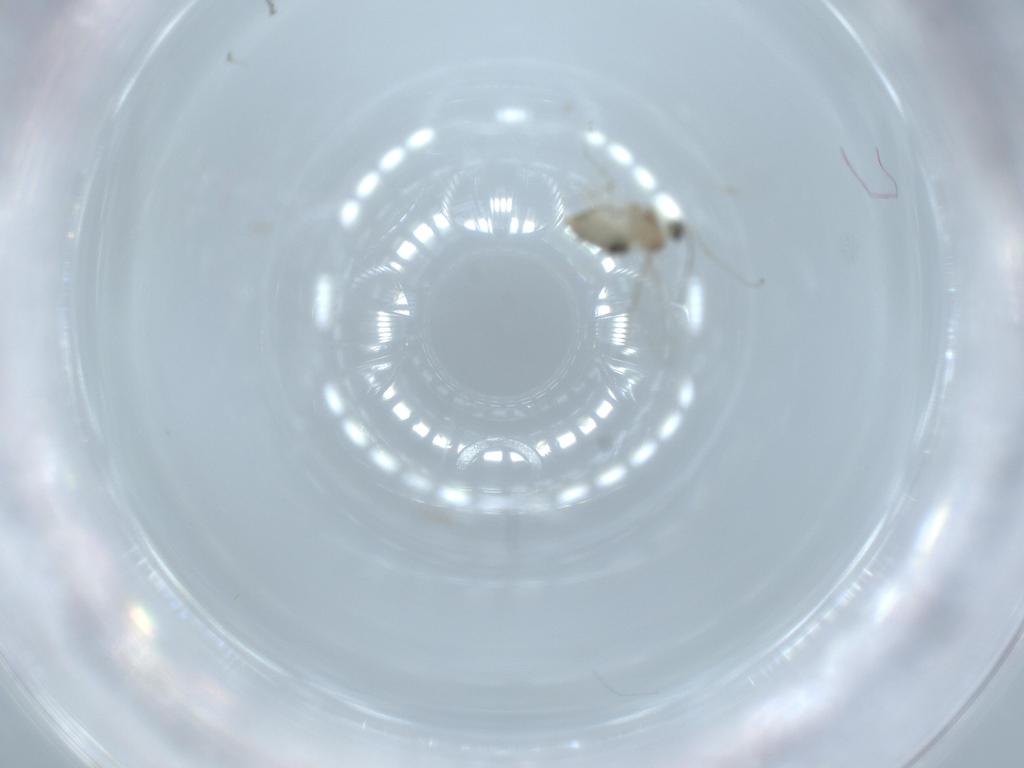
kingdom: Animalia
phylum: Arthropoda
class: Insecta
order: Diptera
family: Cecidomyiidae
